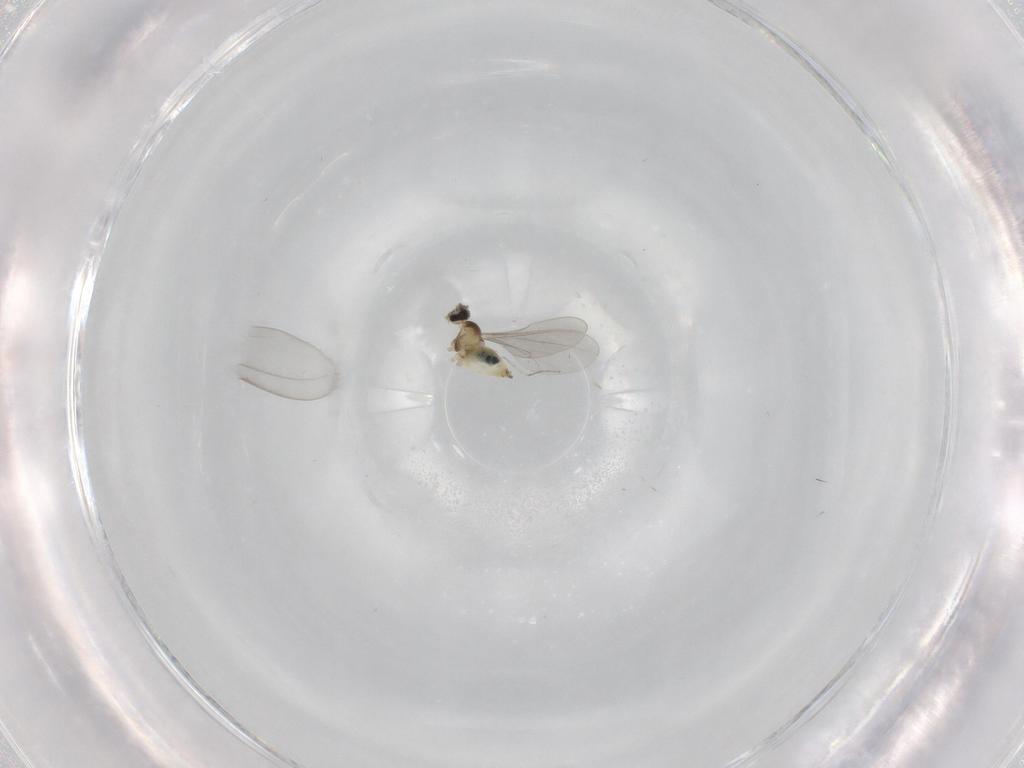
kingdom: Animalia
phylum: Arthropoda
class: Insecta
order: Diptera
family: Cecidomyiidae
